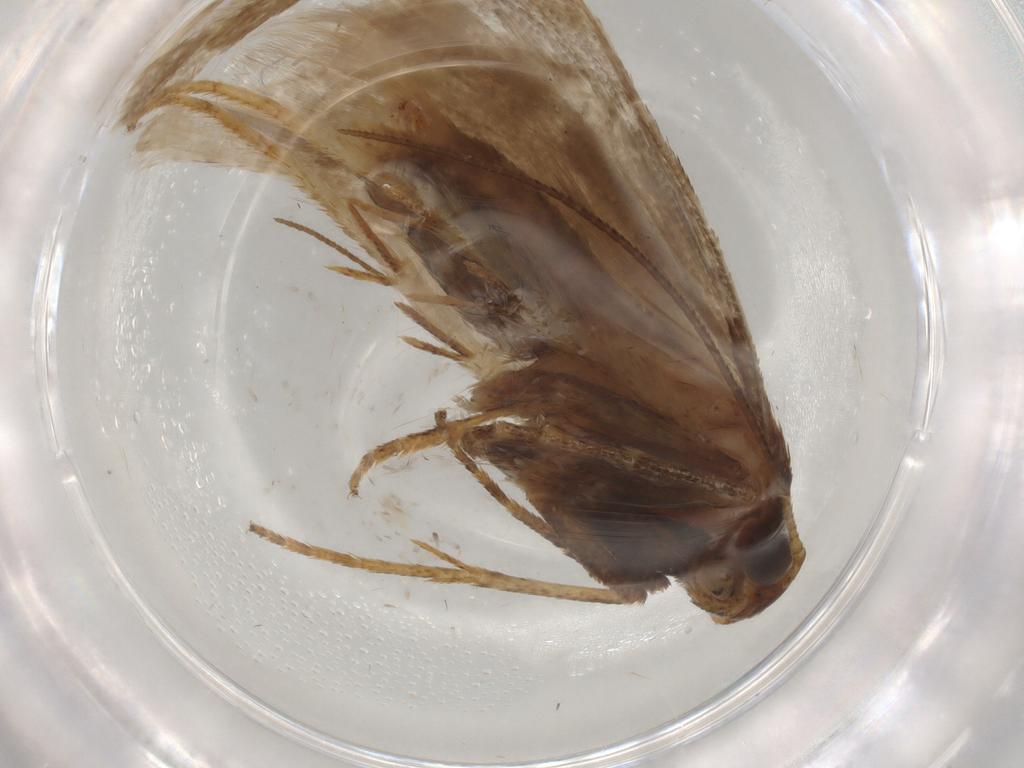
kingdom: Animalia
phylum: Arthropoda
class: Insecta
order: Lepidoptera
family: Depressariidae
